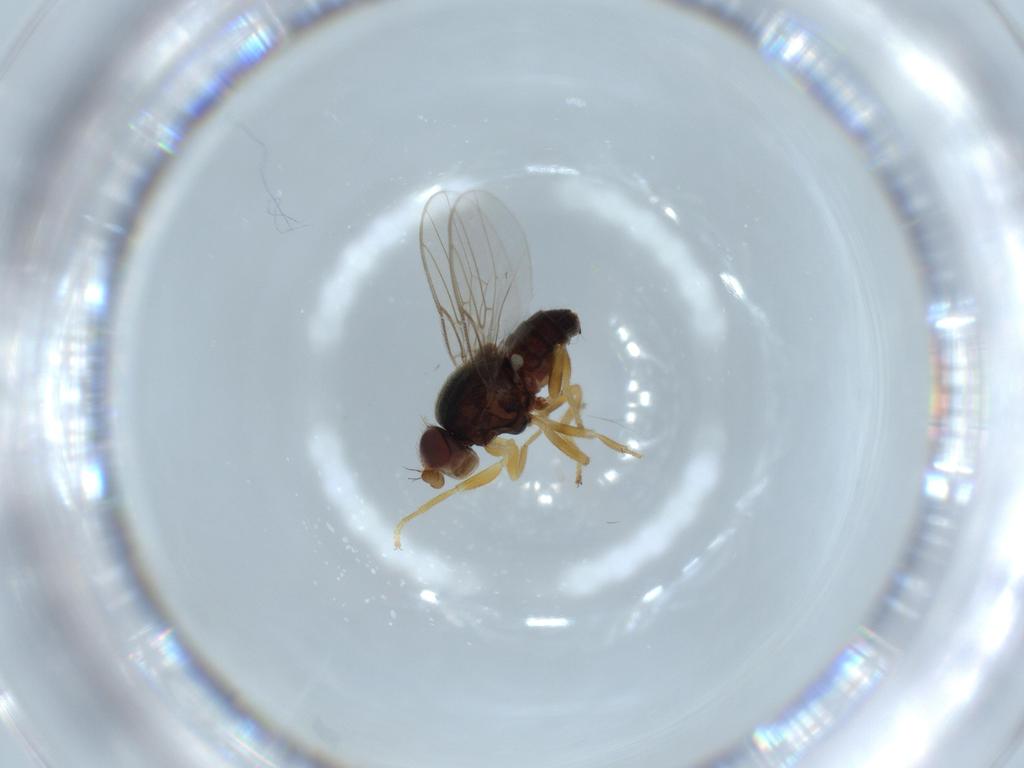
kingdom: Animalia
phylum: Arthropoda
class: Insecta
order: Diptera
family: Chloropidae
